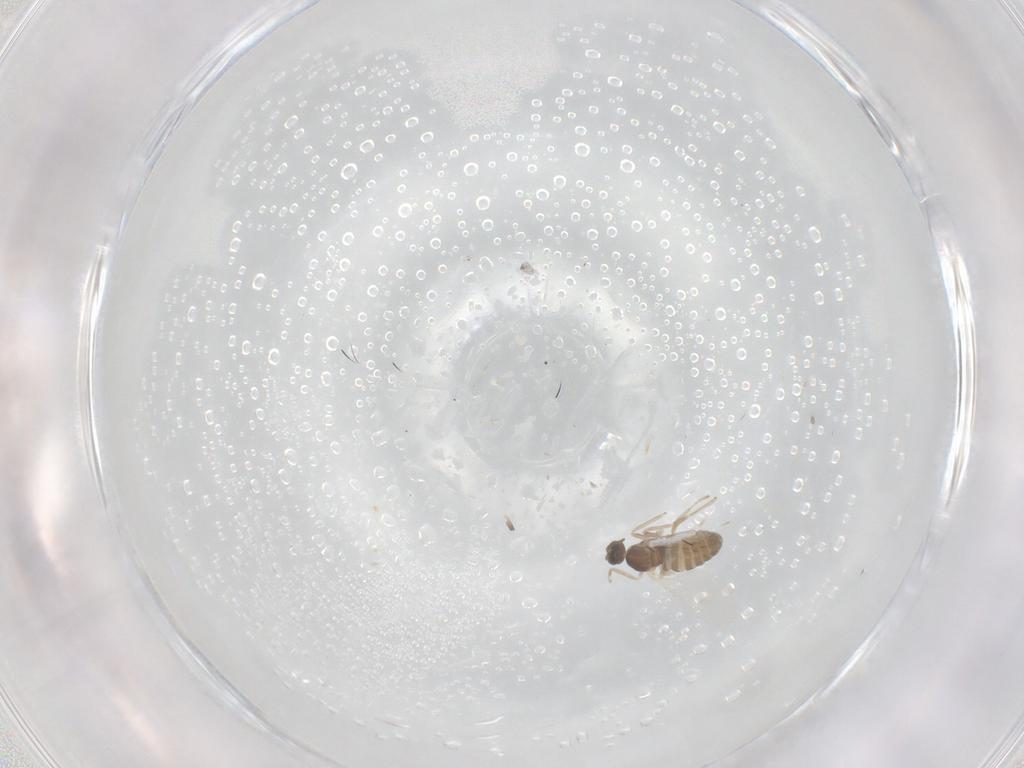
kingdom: Animalia
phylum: Arthropoda
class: Insecta
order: Diptera
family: Cecidomyiidae
